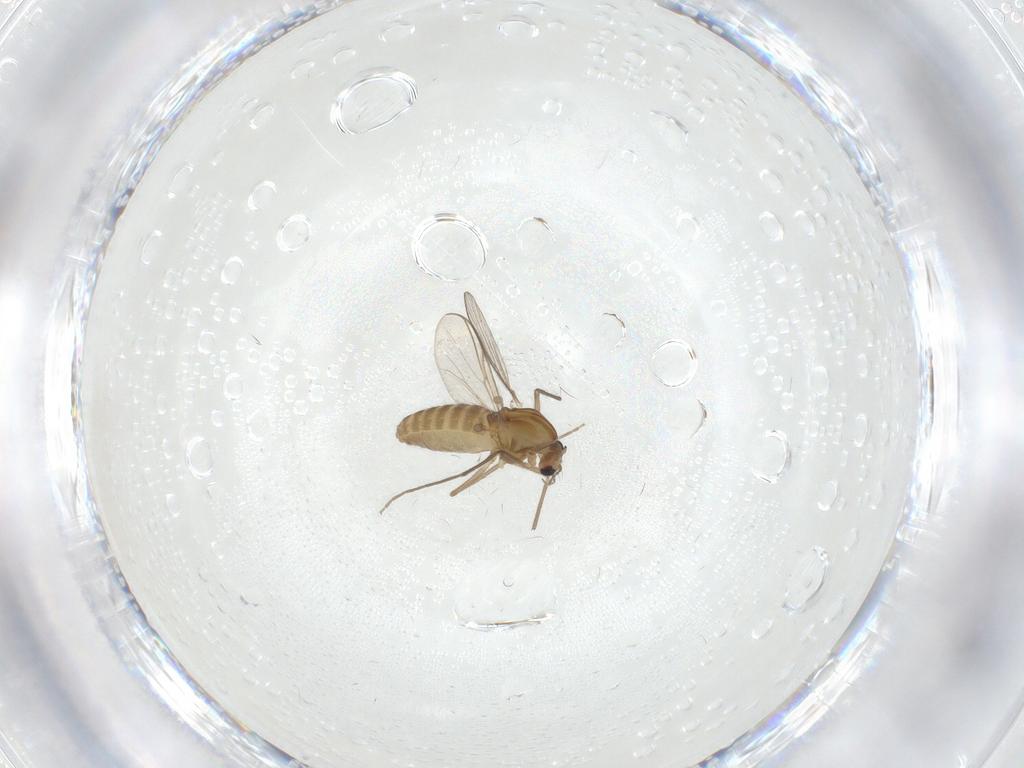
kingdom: Animalia
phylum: Arthropoda
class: Insecta
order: Diptera
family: Chironomidae
